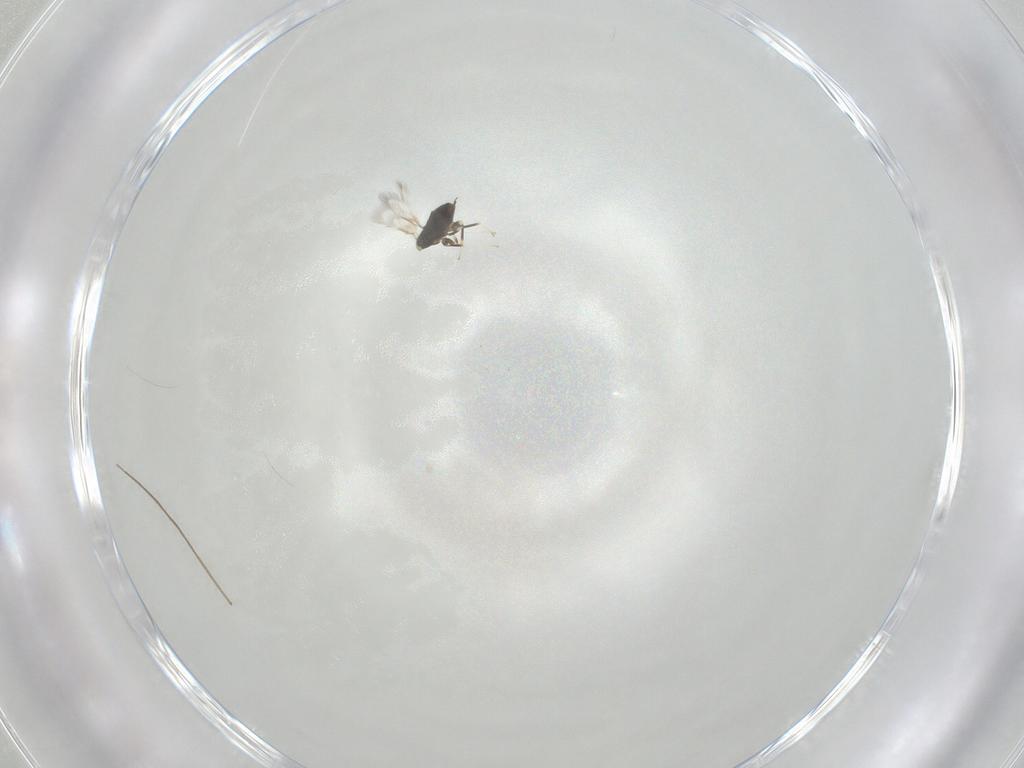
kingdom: Animalia
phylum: Arthropoda
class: Insecta
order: Hymenoptera
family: Formicidae
